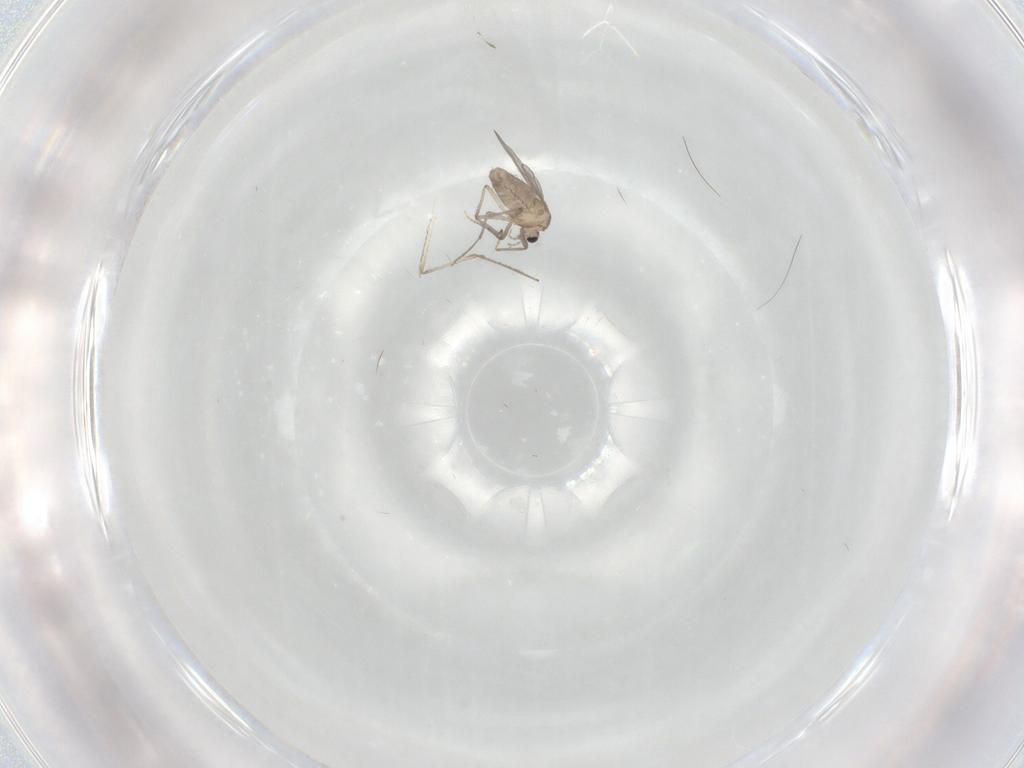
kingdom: Animalia
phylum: Arthropoda
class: Insecta
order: Diptera
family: Chironomidae
